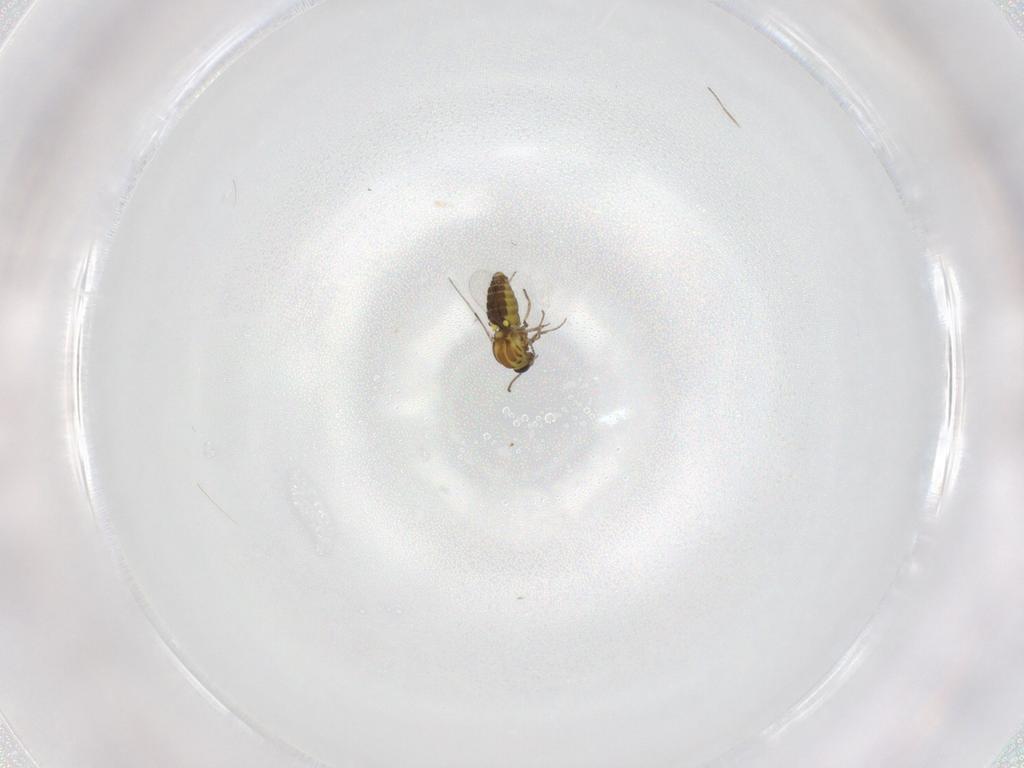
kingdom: Animalia
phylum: Arthropoda
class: Insecta
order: Diptera
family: Ceratopogonidae
